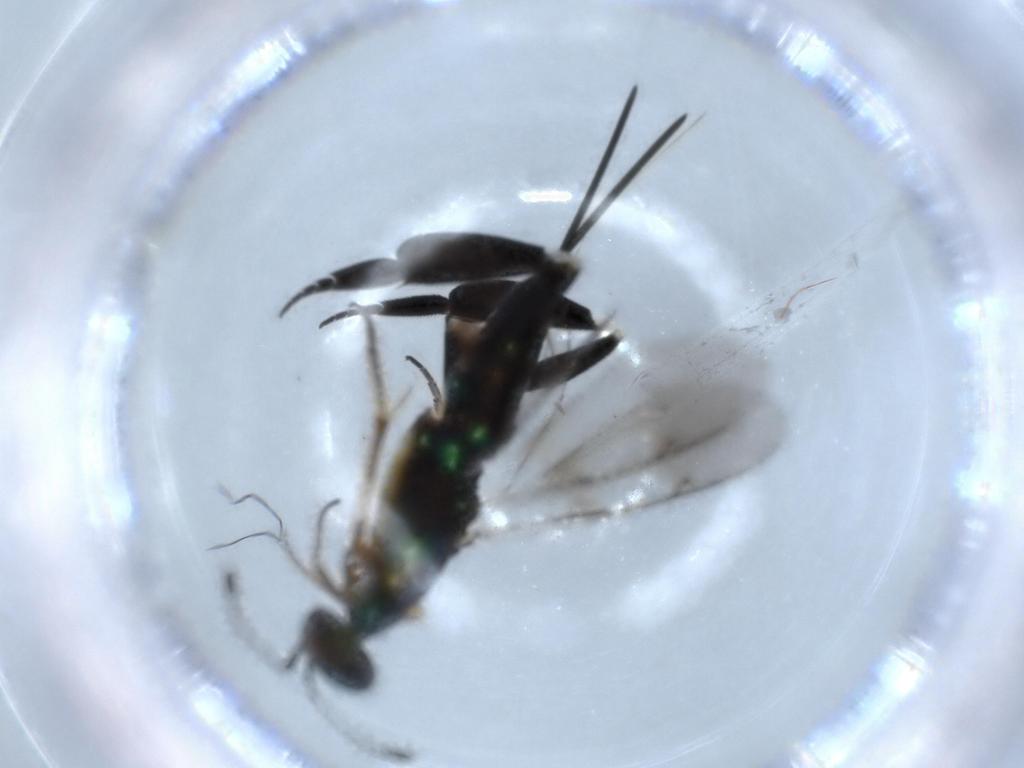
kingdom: Animalia
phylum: Arthropoda
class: Insecta
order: Hymenoptera
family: Eupelmidae
